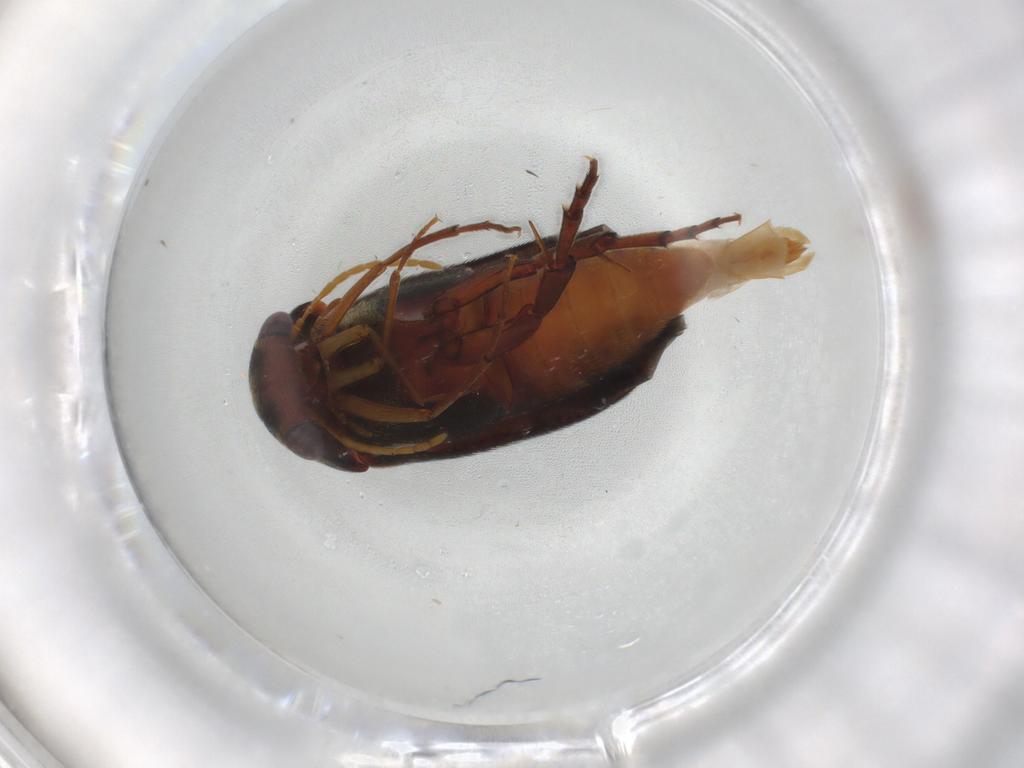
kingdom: Animalia
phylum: Arthropoda
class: Insecta
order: Coleoptera
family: Mordellidae
